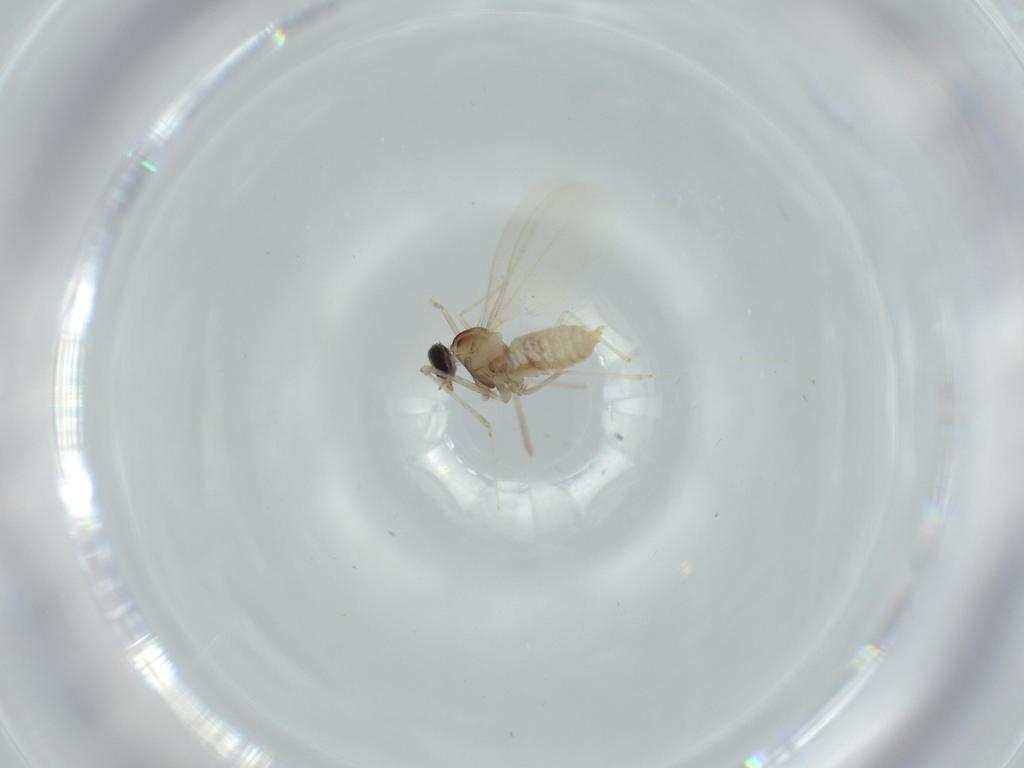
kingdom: Animalia
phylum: Arthropoda
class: Insecta
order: Diptera
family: Cecidomyiidae
